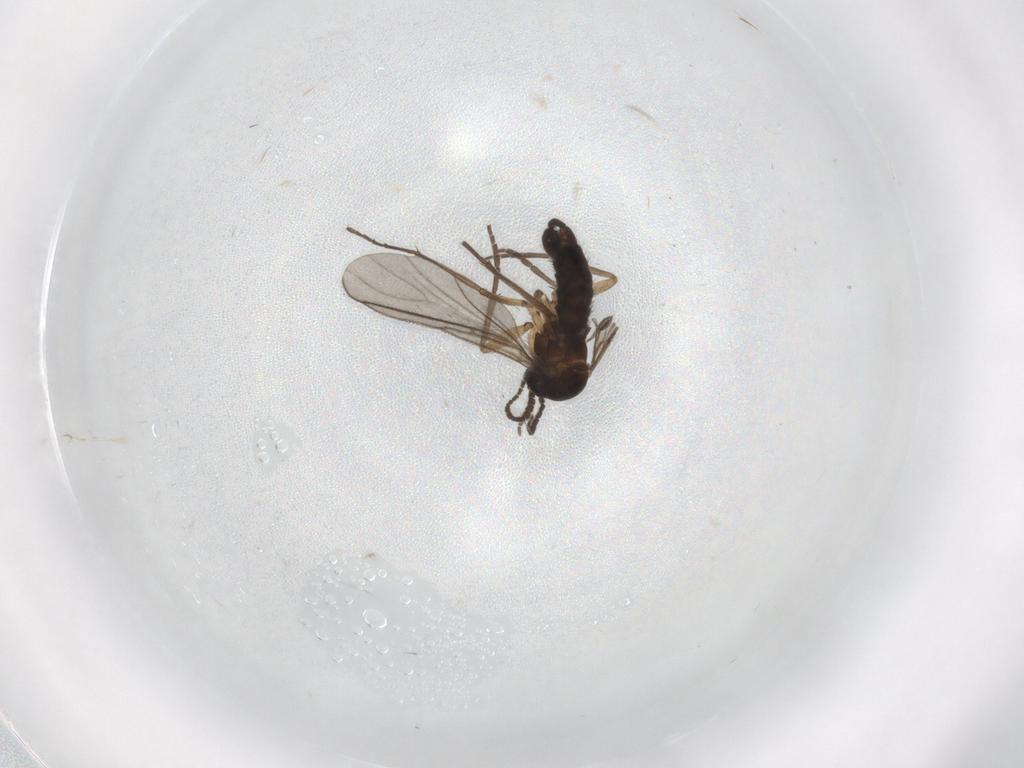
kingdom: Animalia
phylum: Arthropoda
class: Insecta
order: Diptera
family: Sciaridae
